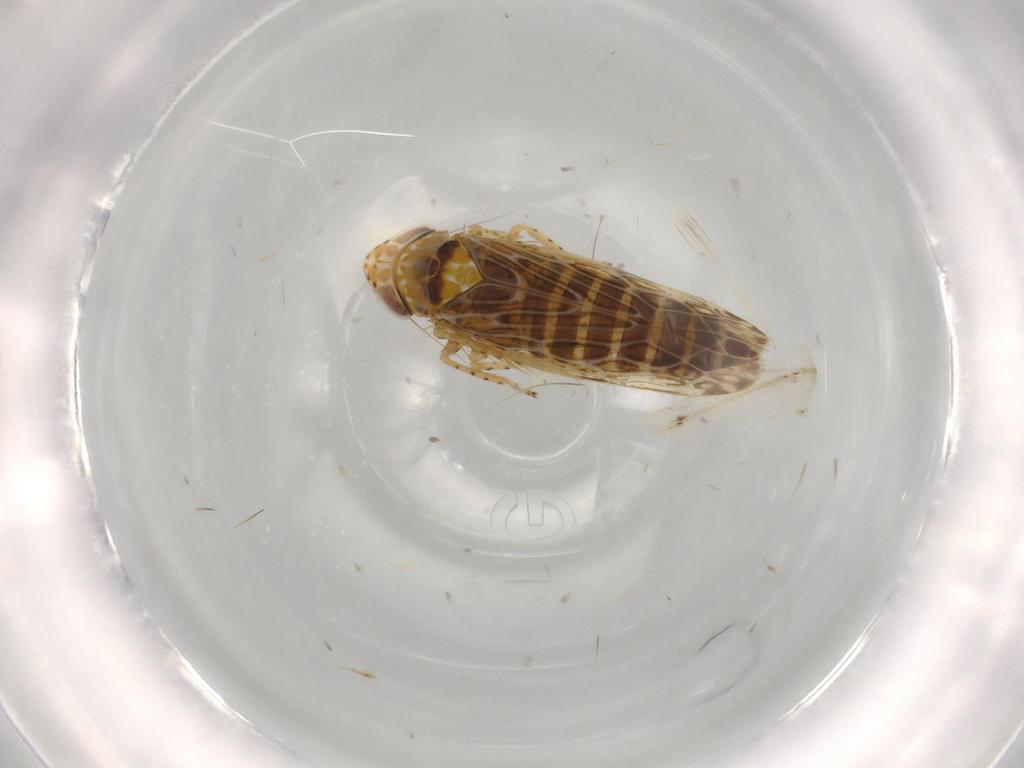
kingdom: Animalia
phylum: Arthropoda
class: Insecta
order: Hemiptera
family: Cicadellidae
